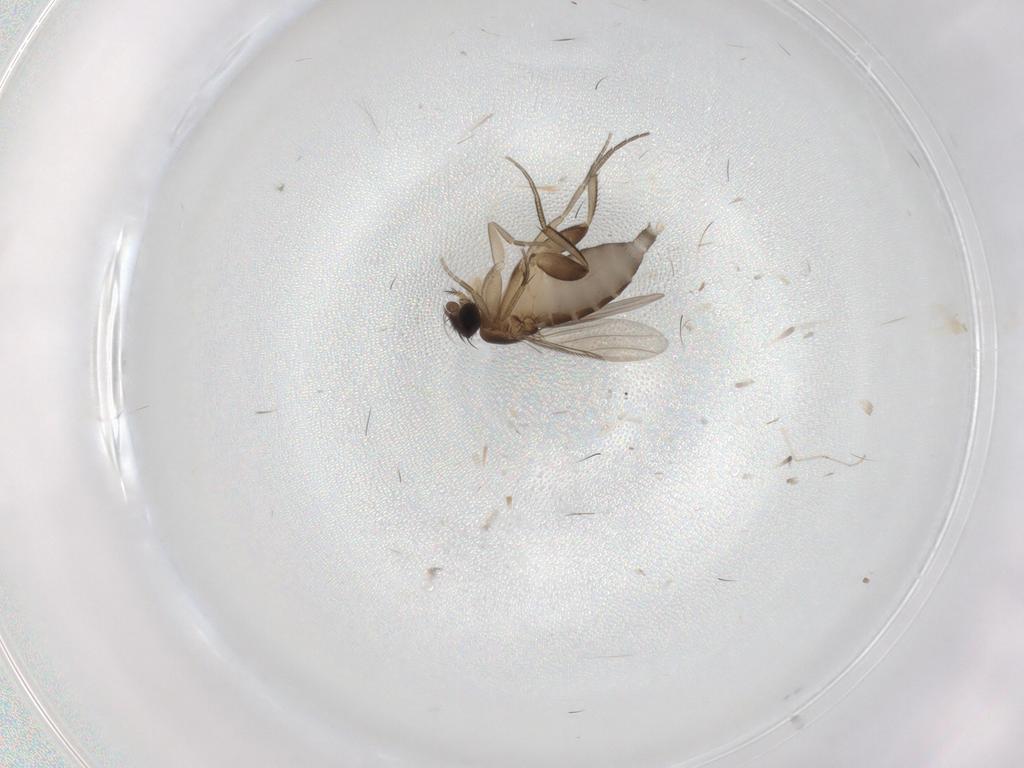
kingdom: Animalia
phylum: Arthropoda
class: Insecta
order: Diptera
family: Phoridae
